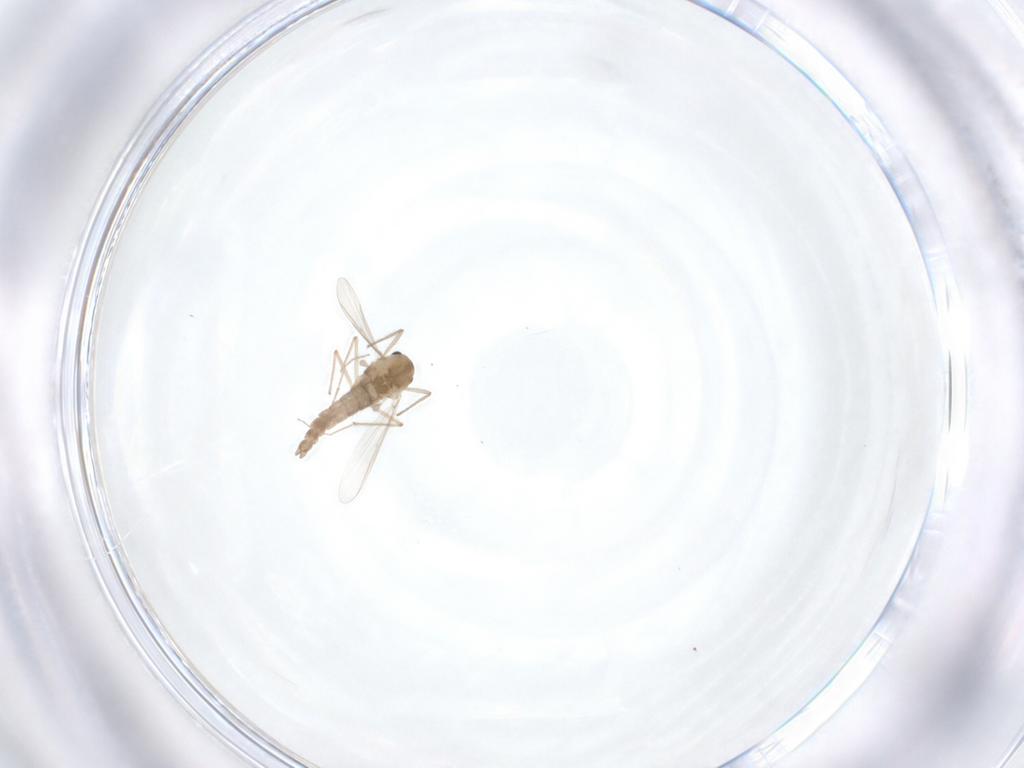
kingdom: Animalia
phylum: Arthropoda
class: Insecta
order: Diptera
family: Chironomidae
